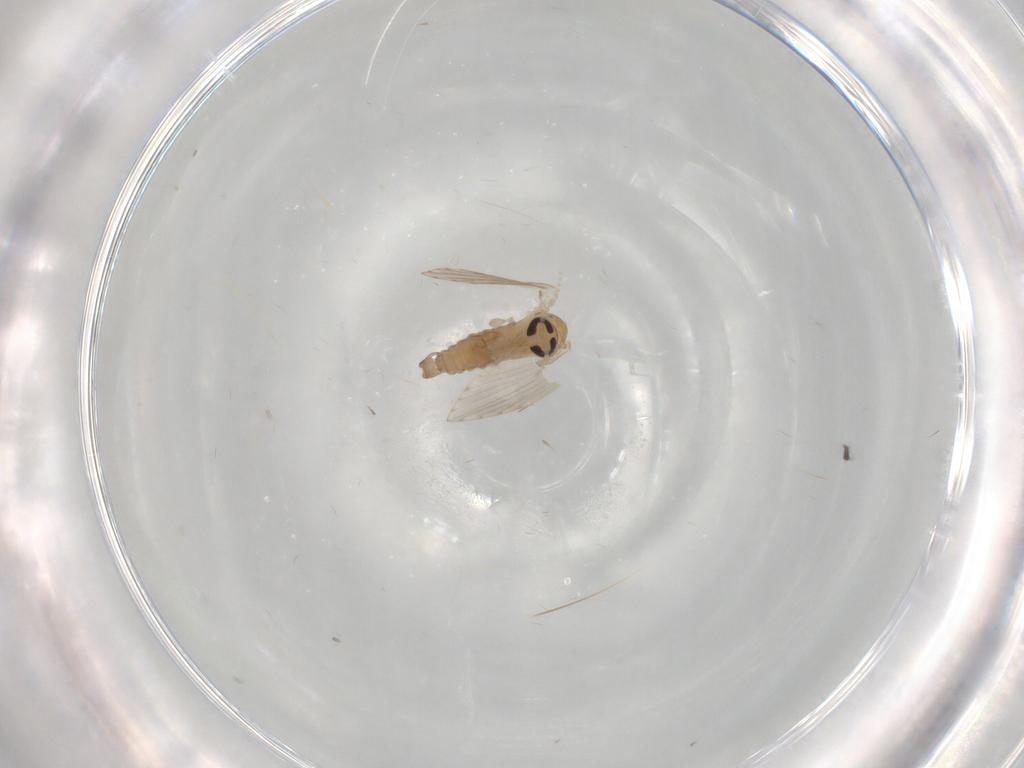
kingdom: Animalia
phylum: Arthropoda
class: Insecta
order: Diptera
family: Psychodidae
